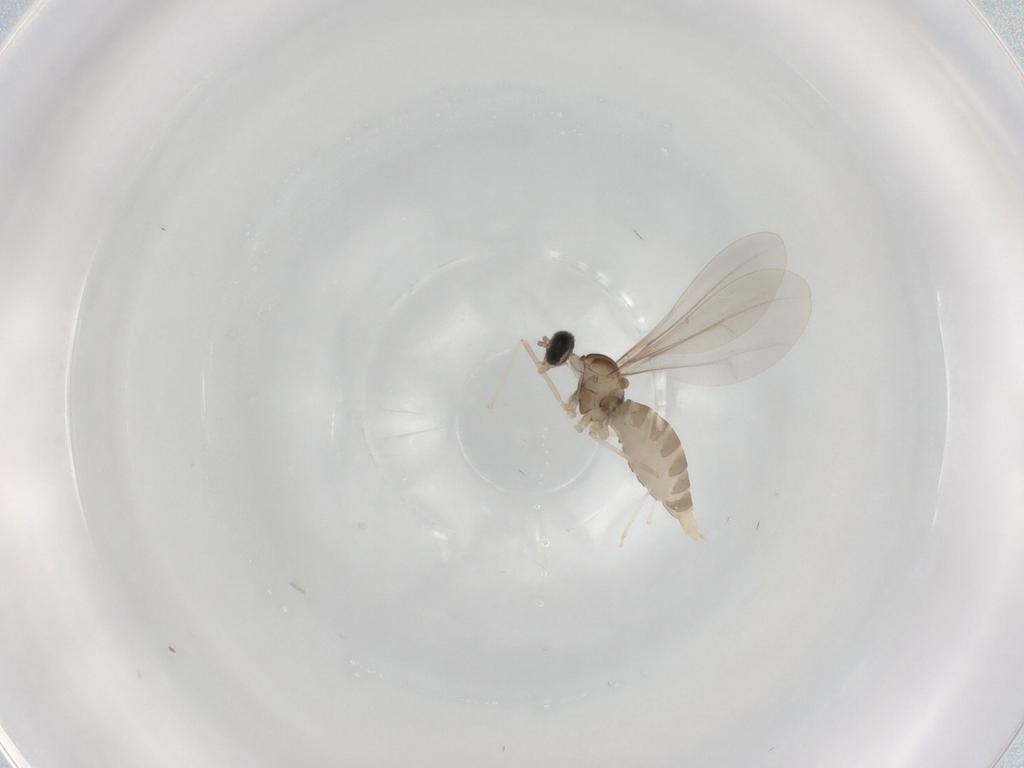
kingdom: Animalia
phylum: Arthropoda
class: Insecta
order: Diptera
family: Cecidomyiidae
